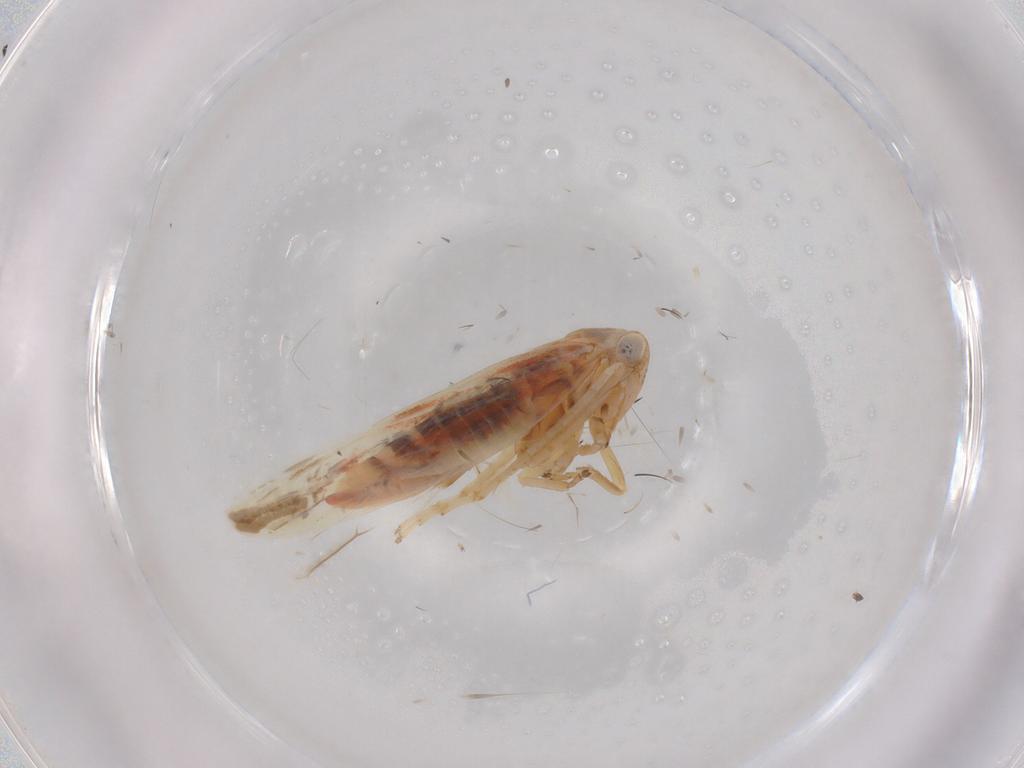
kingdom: Animalia
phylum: Arthropoda
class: Insecta
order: Hemiptera
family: Cicadellidae
